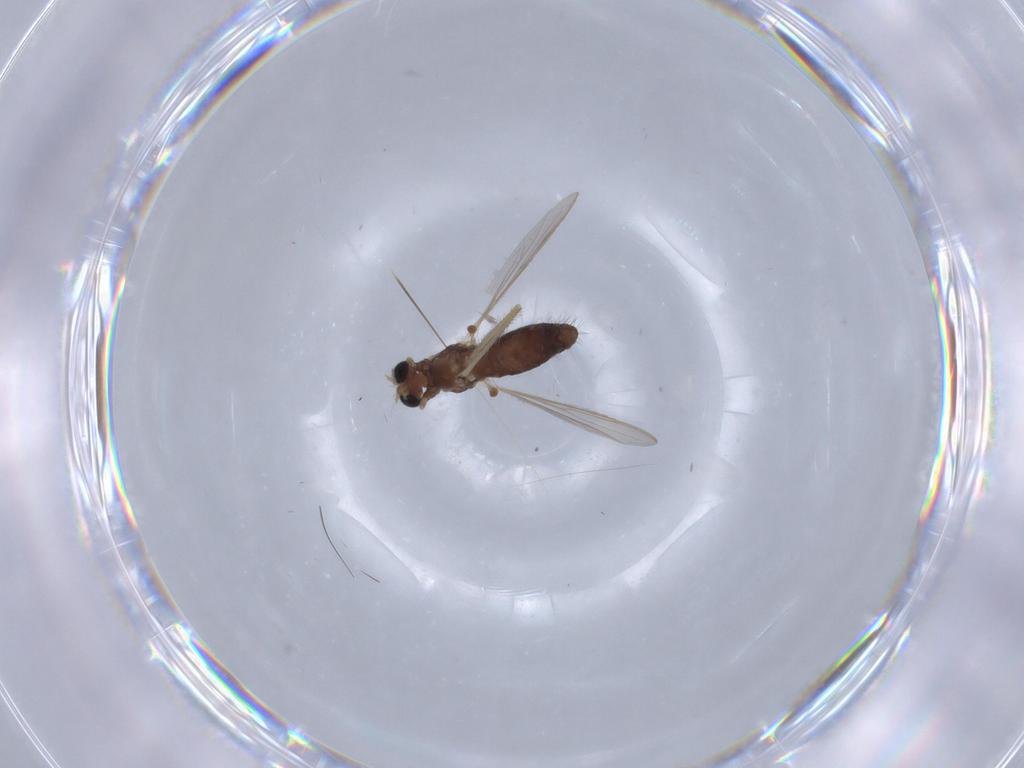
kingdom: Animalia
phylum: Arthropoda
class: Insecta
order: Diptera
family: Chironomidae
